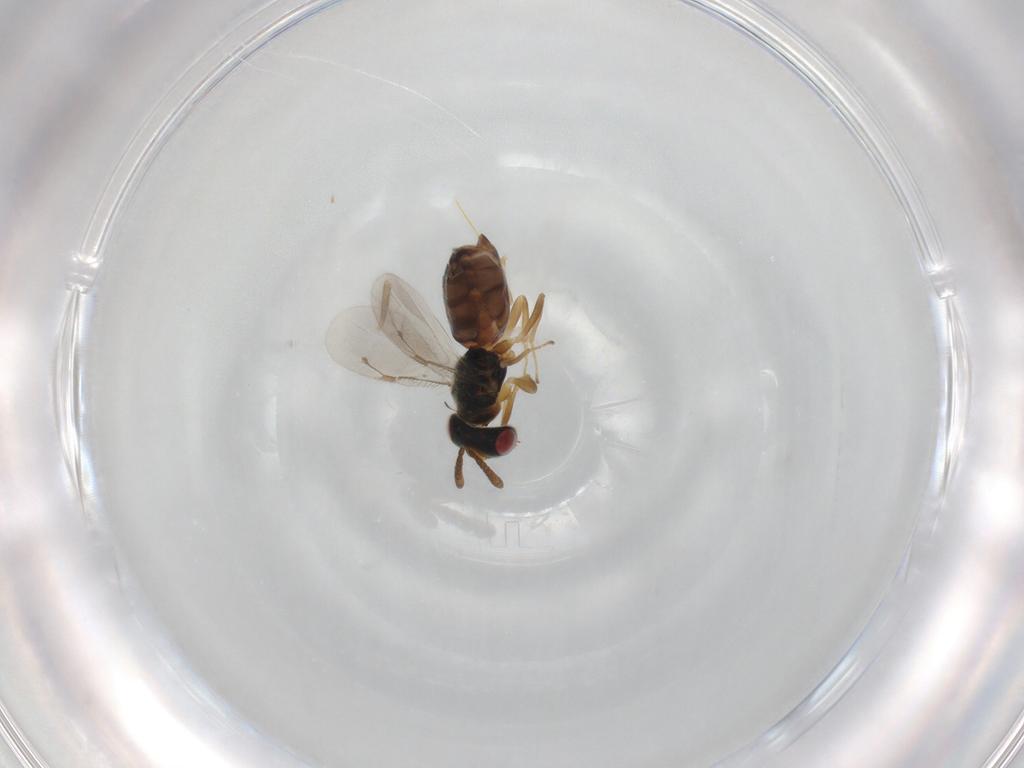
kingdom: Animalia
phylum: Arthropoda
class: Insecta
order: Hymenoptera
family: Pteromalidae
